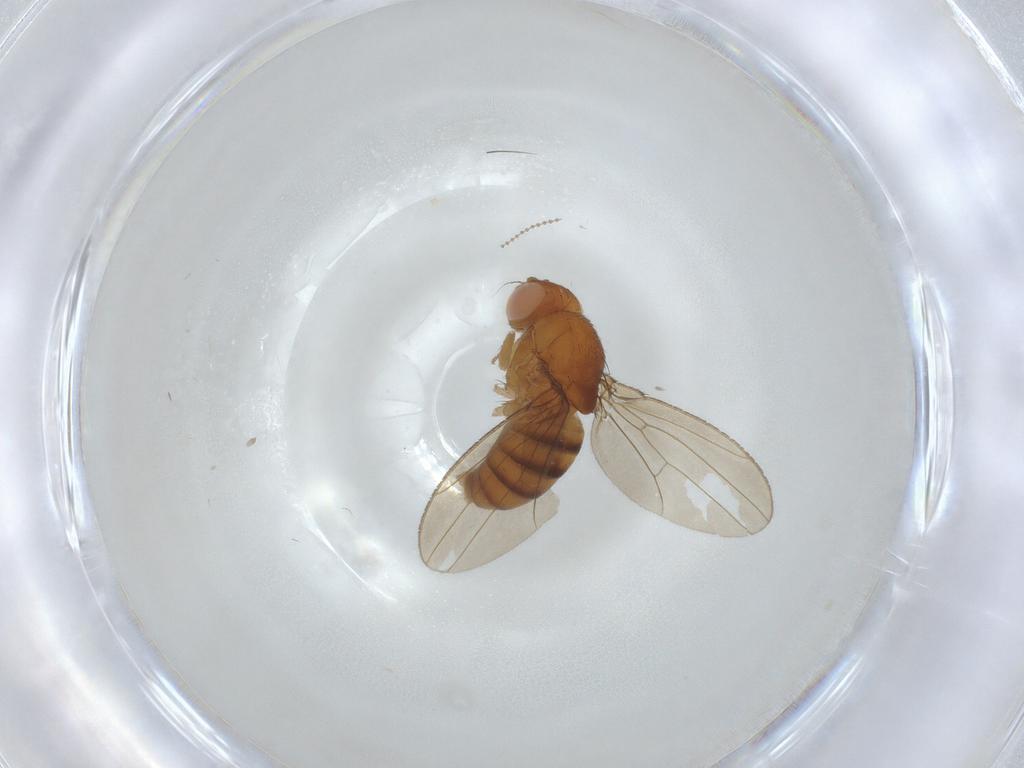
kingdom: Animalia
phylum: Arthropoda
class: Insecta
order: Diptera
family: Drosophilidae
